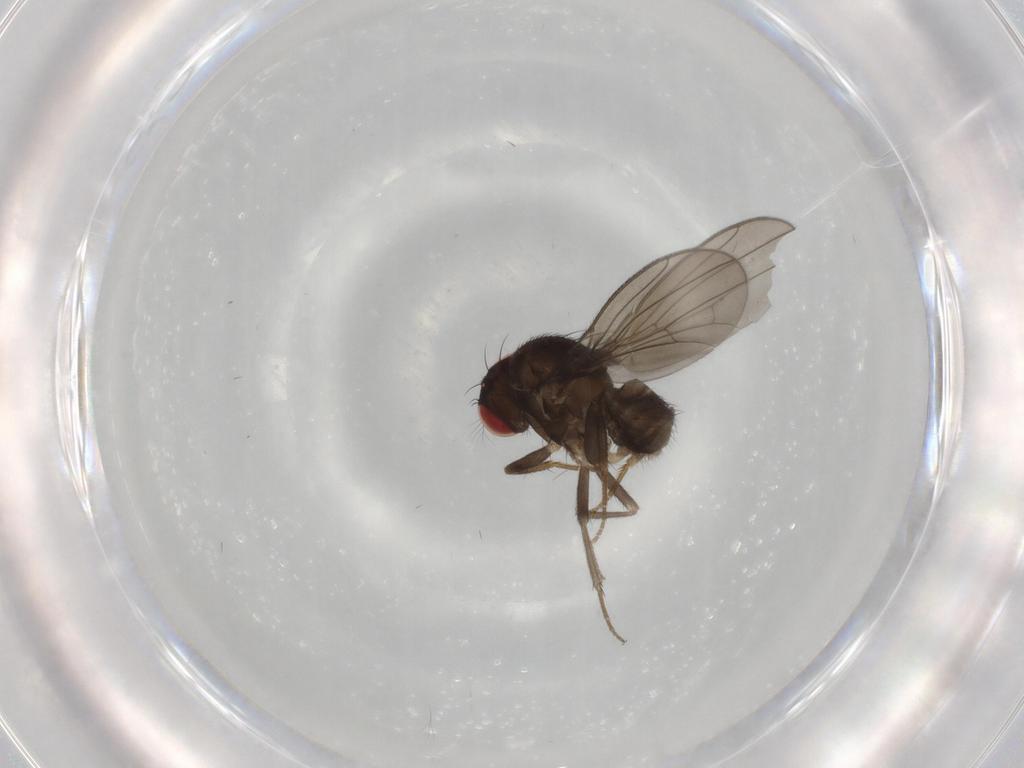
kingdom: Animalia
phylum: Arthropoda
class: Insecta
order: Diptera
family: Drosophilidae
